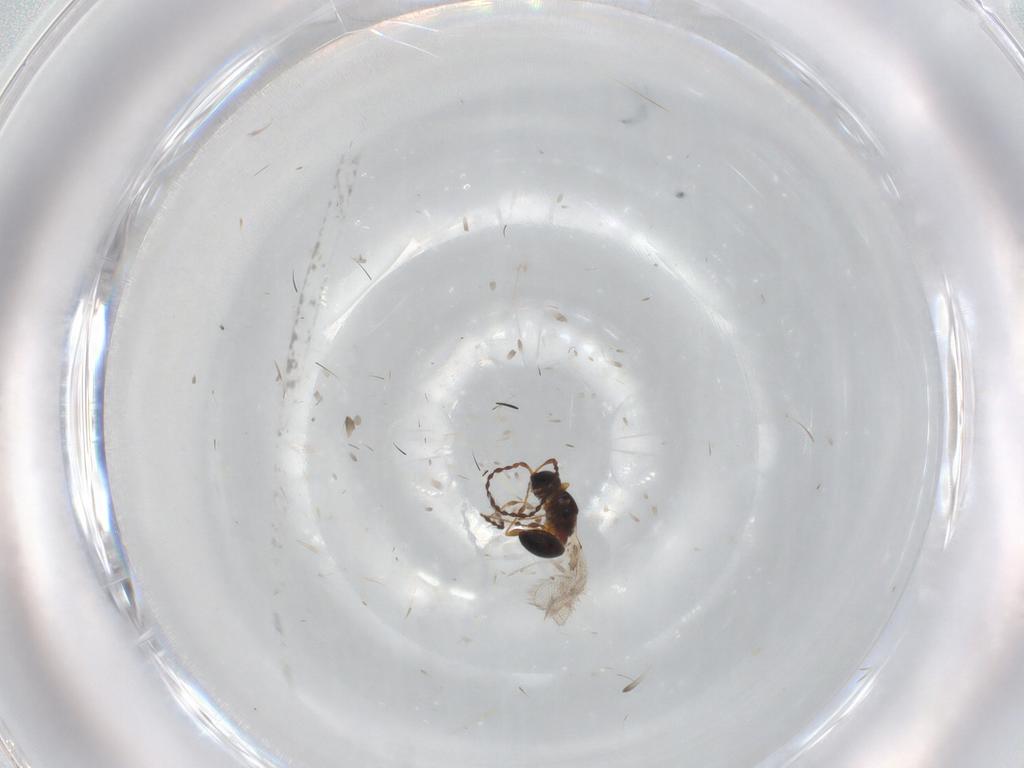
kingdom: Animalia
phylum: Arthropoda
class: Insecta
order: Hymenoptera
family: Diapriidae
